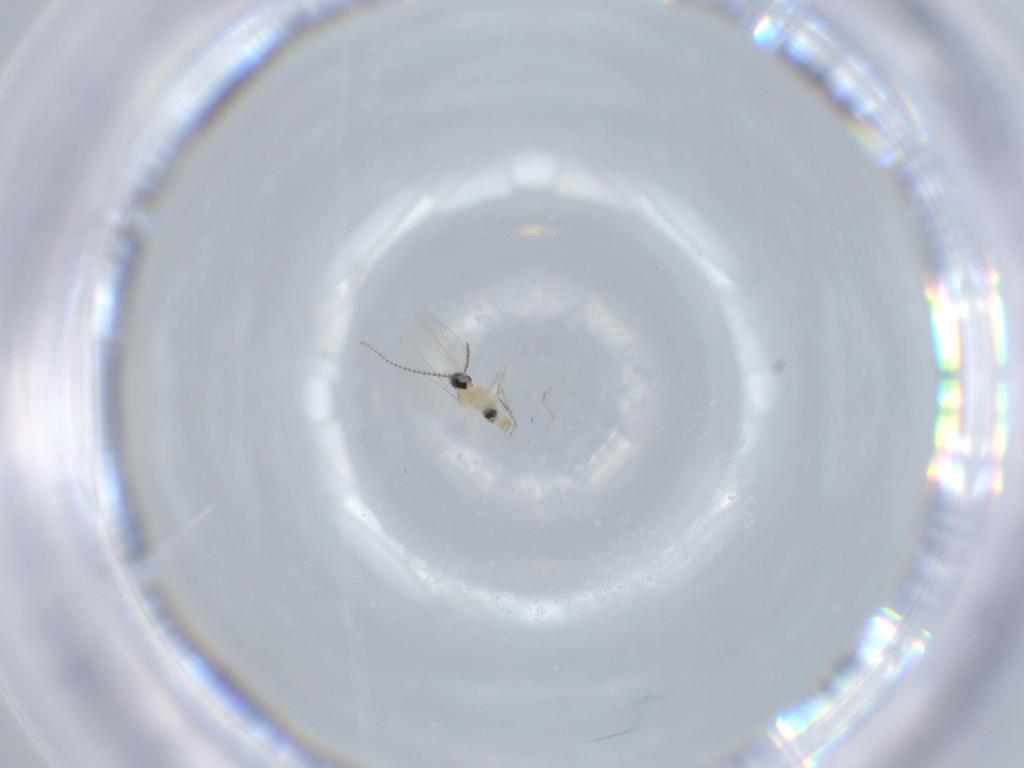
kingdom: Animalia
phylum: Arthropoda
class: Insecta
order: Diptera
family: Cecidomyiidae
